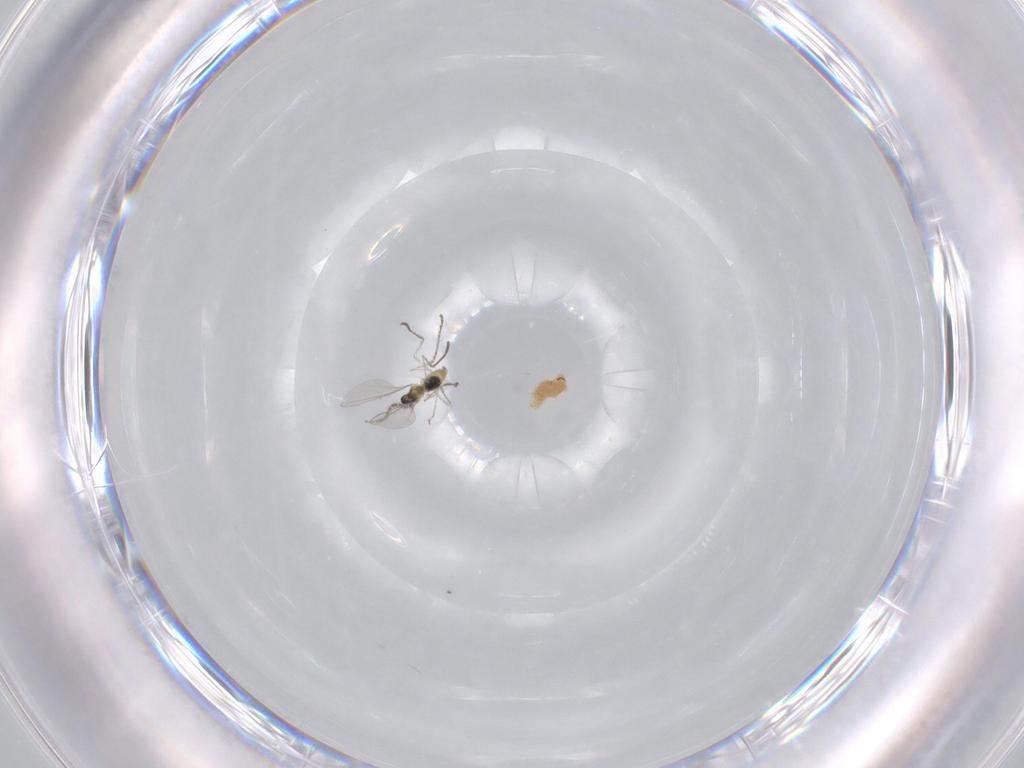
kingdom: Animalia
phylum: Arthropoda
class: Insecta
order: Diptera
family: Cecidomyiidae
